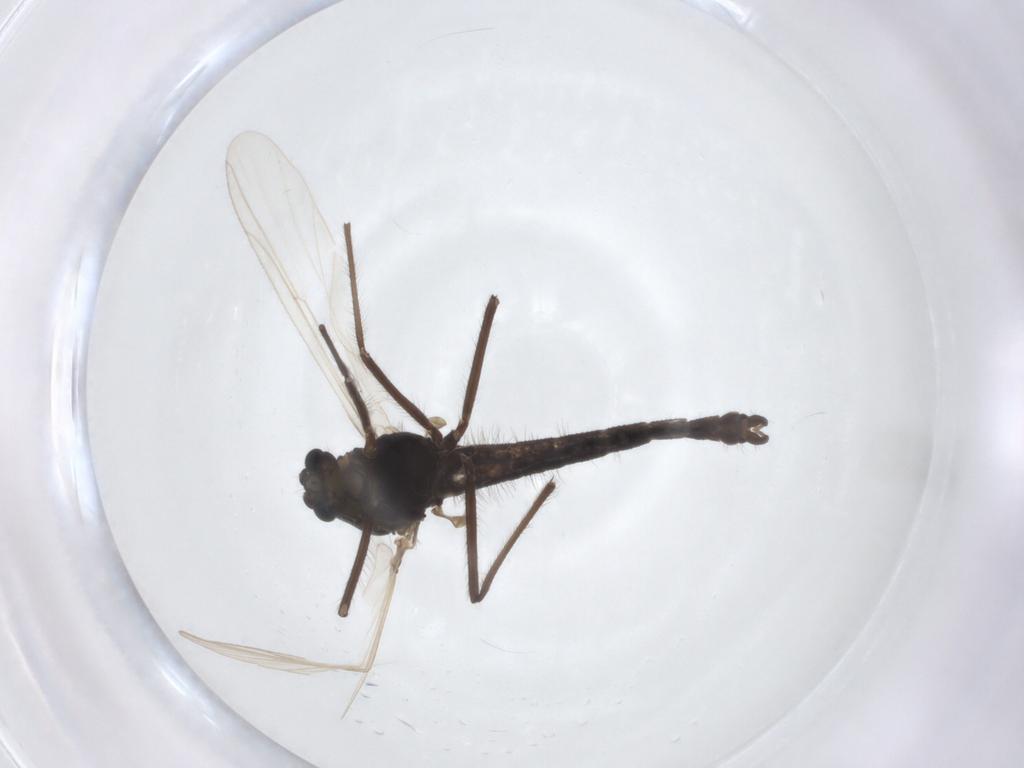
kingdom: Animalia
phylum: Arthropoda
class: Insecta
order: Diptera
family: Chironomidae
